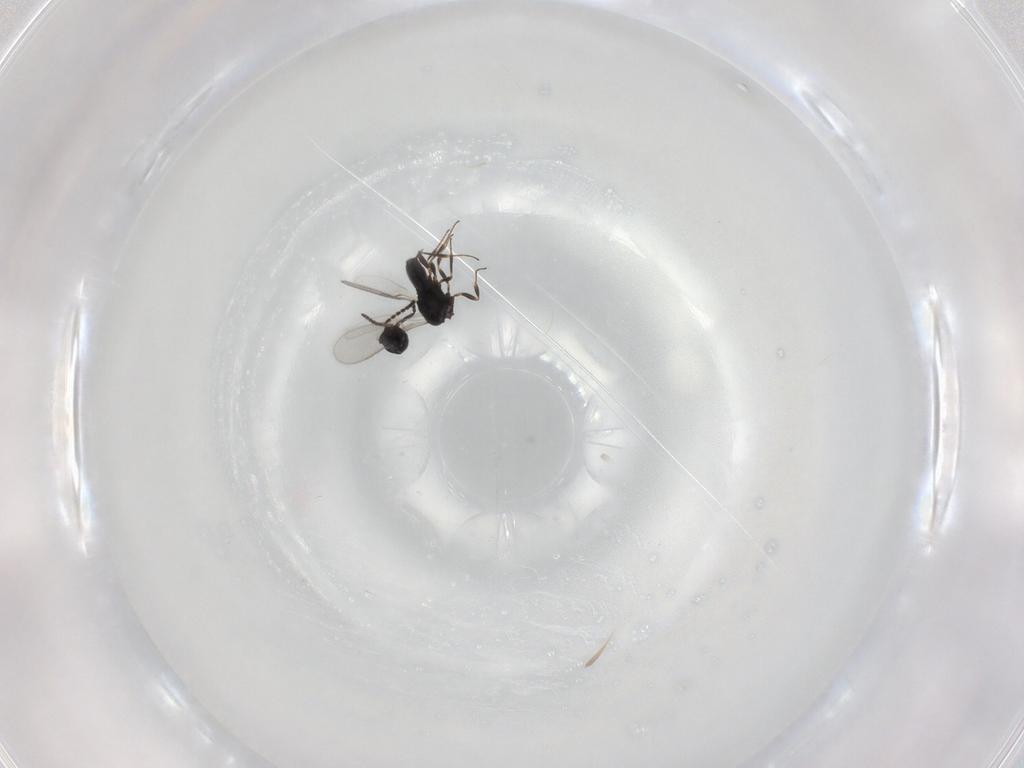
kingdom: Animalia
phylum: Arthropoda
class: Insecta
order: Hymenoptera
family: Scelionidae
